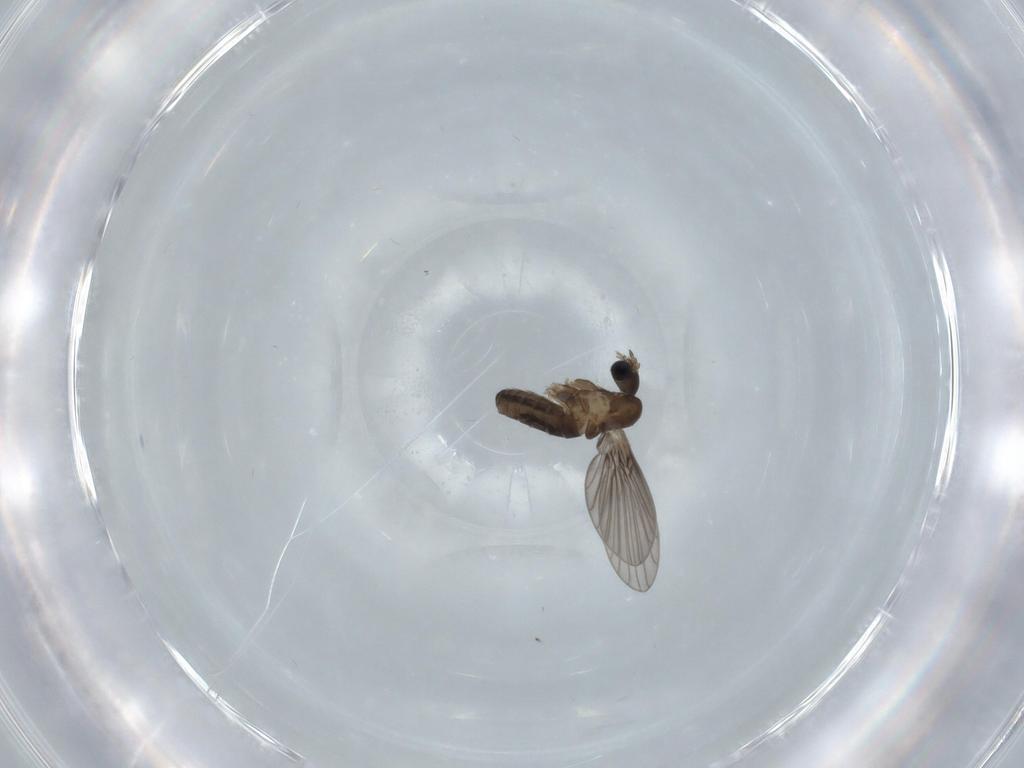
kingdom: Animalia
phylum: Arthropoda
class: Insecta
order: Diptera
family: Psychodidae
